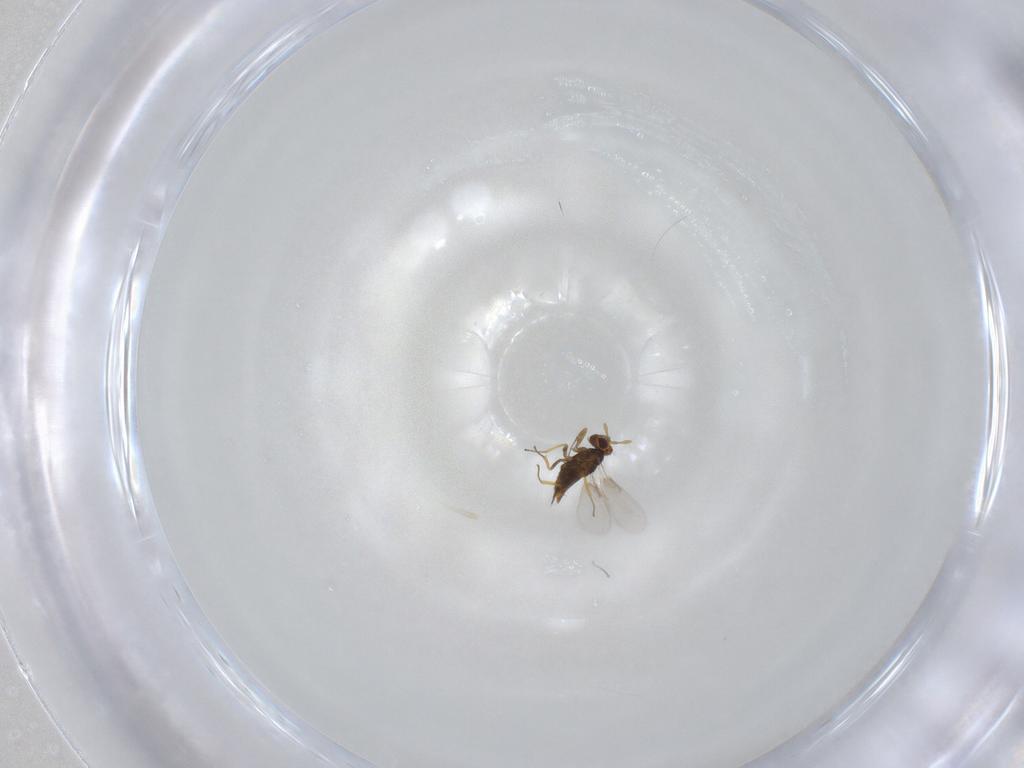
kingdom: Animalia
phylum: Arthropoda
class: Insecta
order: Hymenoptera
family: Aphelinidae
